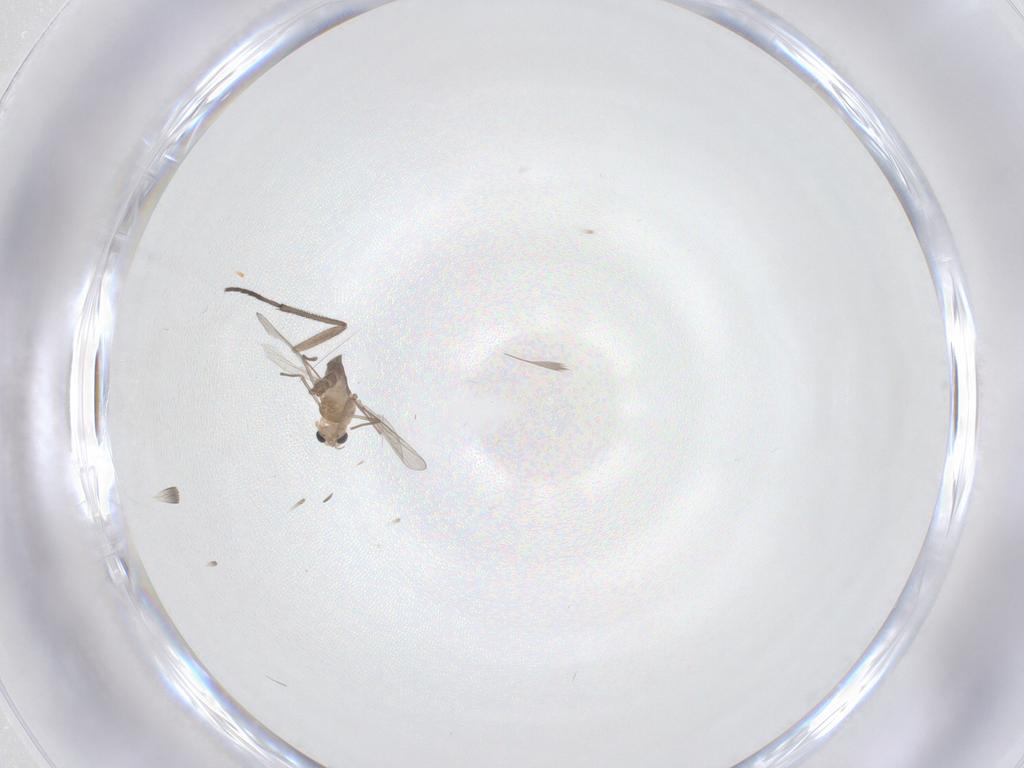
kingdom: Animalia
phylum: Arthropoda
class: Insecta
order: Diptera
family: Chironomidae
